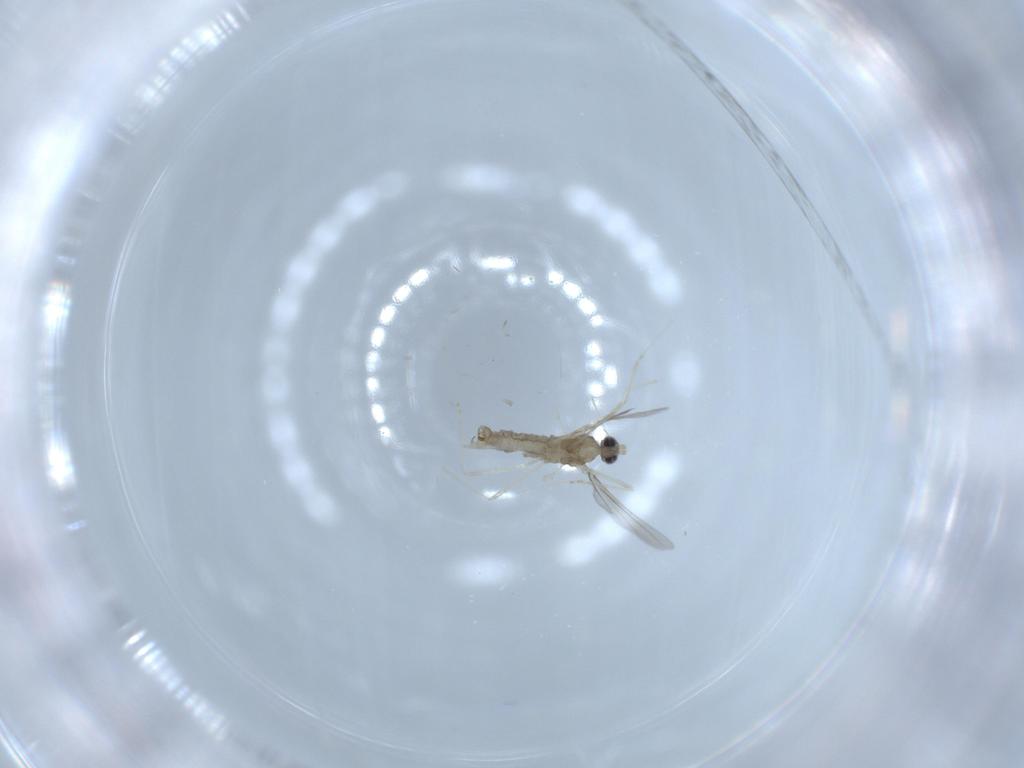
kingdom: Animalia
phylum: Arthropoda
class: Insecta
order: Diptera
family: Cecidomyiidae
